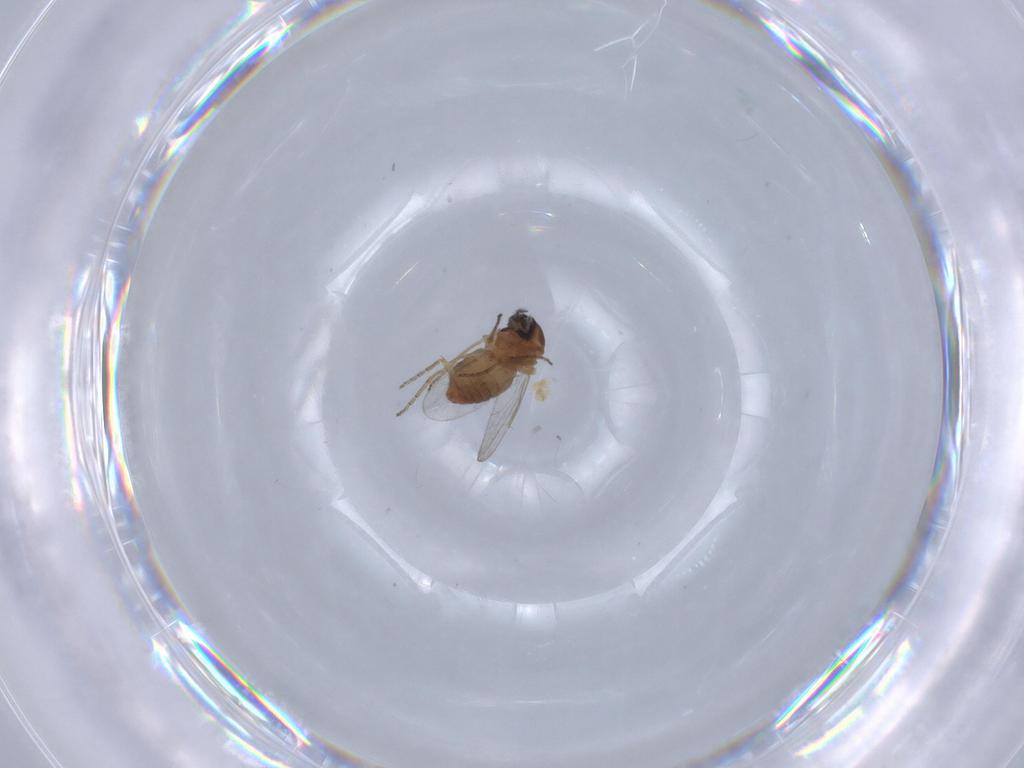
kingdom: Animalia
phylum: Arthropoda
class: Insecta
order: Diptera
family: Ceratopogonidae
